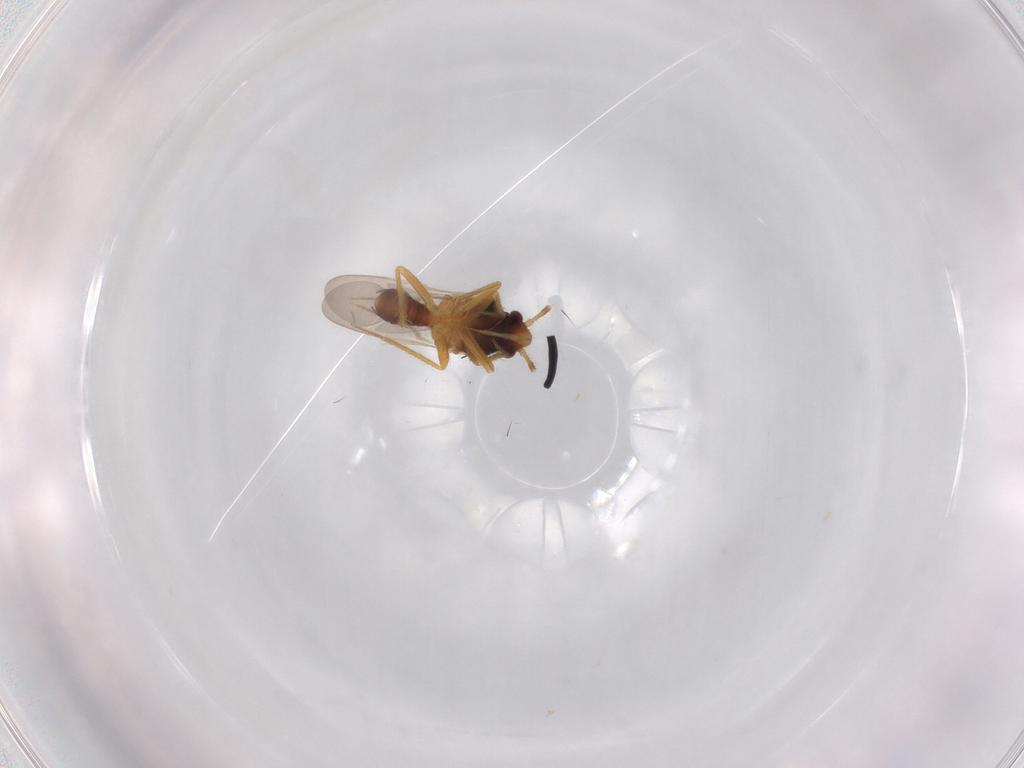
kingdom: Animalia
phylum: Arthropoda
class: Insecta
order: Hemiptera
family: Ceratocombidae
